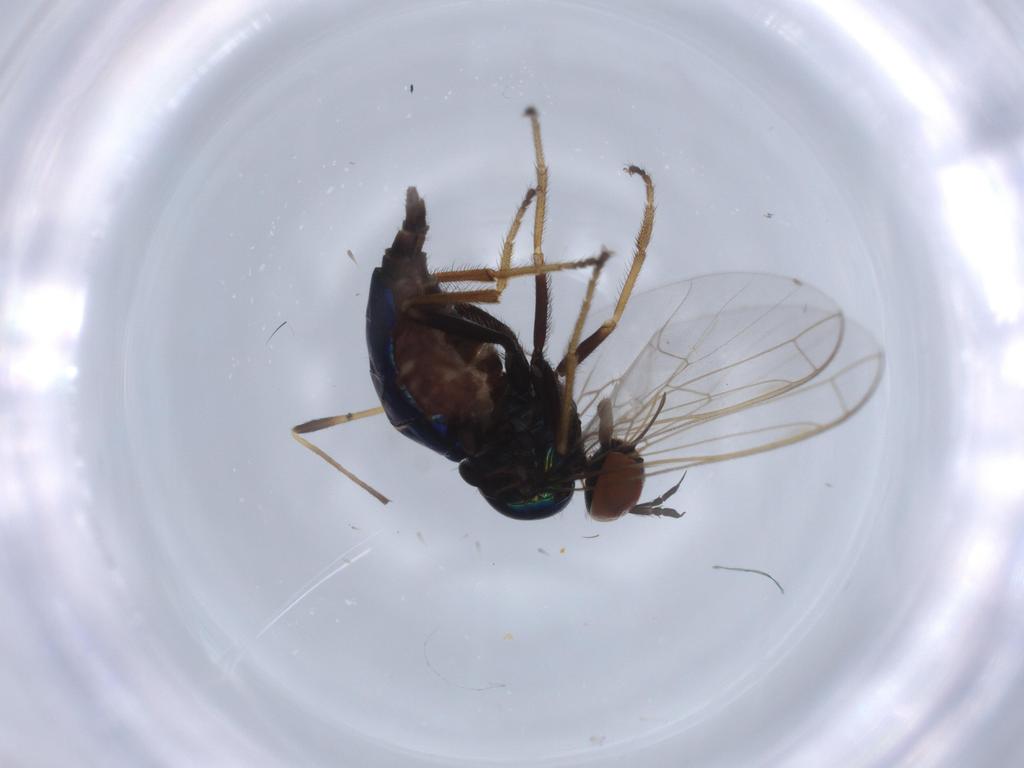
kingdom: Animalia
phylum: Arthropoda
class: Insecta
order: Diptera
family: Empididae
